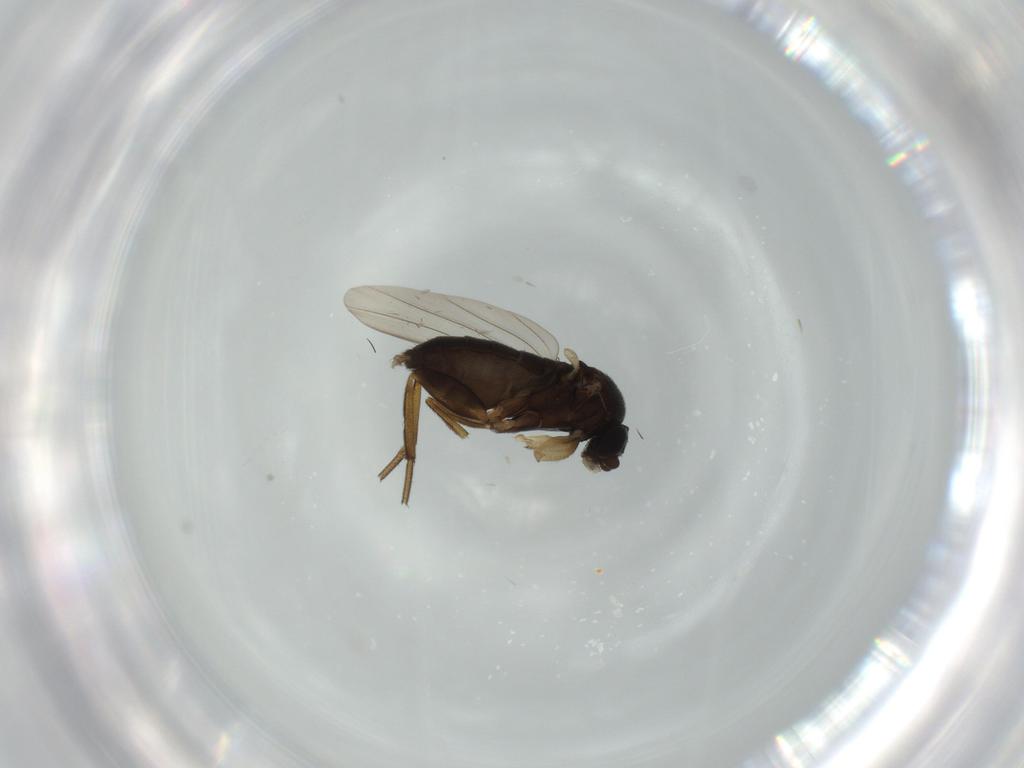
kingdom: Animalia
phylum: Arthropoda
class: Insecta
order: Diptera
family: Phoridae
